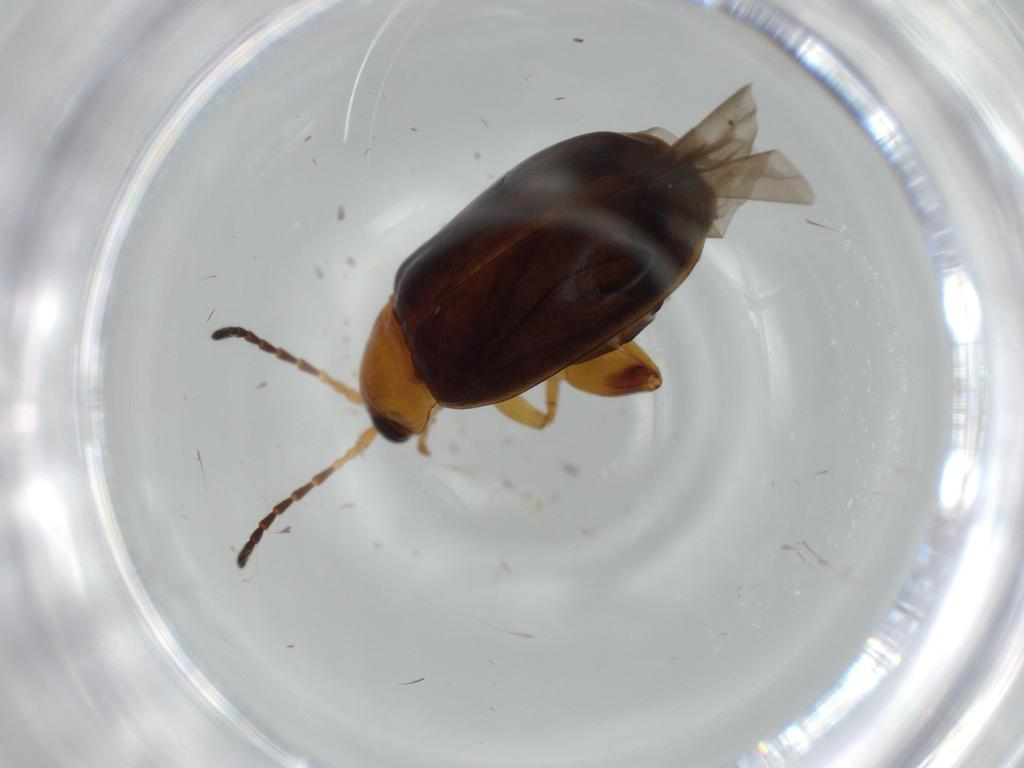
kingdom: Animalia
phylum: Arthropoda
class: Insecta
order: Coleoptera
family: Chrysomelidae
